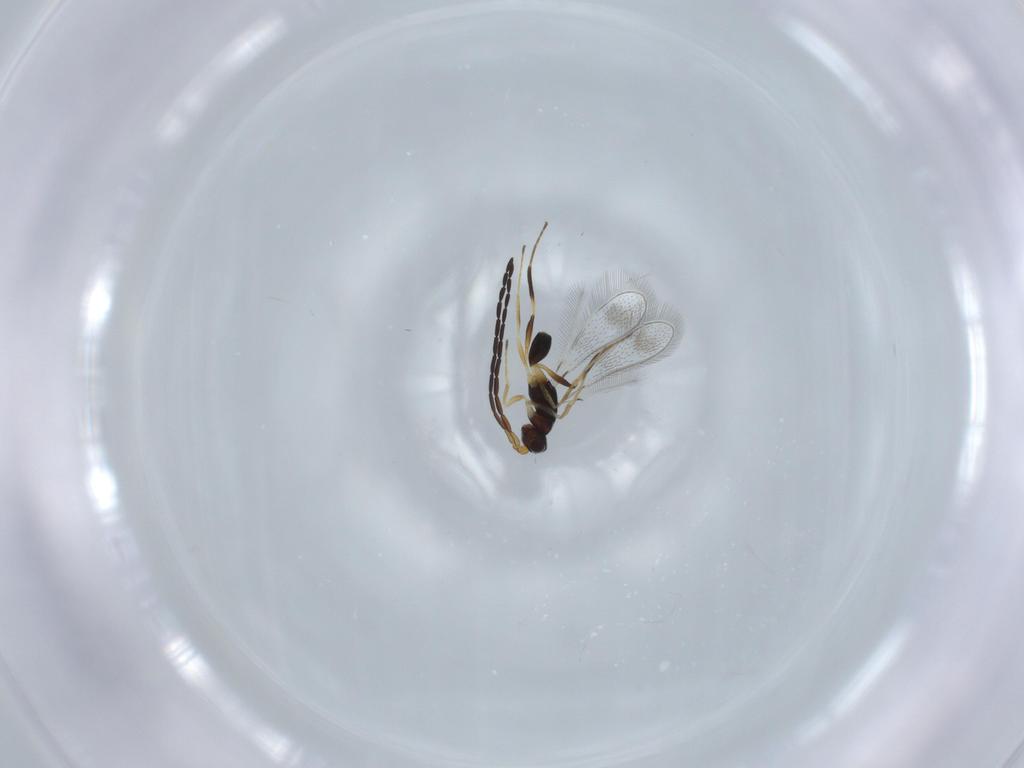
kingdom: Animalia
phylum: Arthropoda
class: Insecta
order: Hymenoptera
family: Mymaridae
